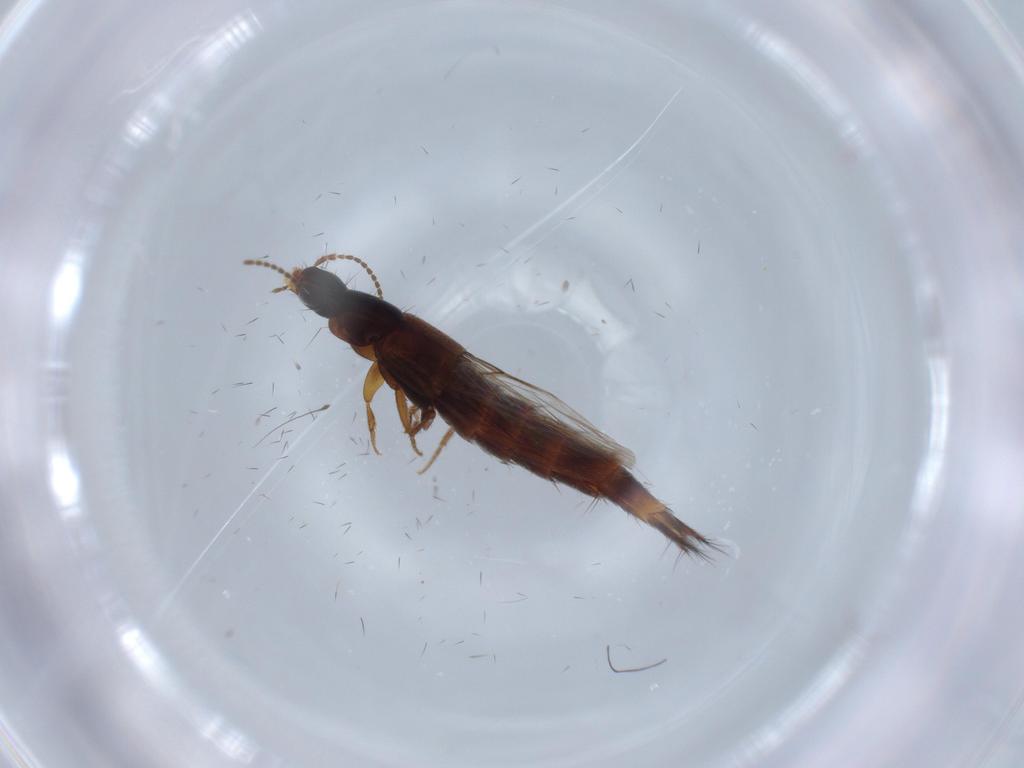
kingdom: Animalia
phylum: Arthropoda
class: Insecta
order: Coleoptera
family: Staphylinidae
